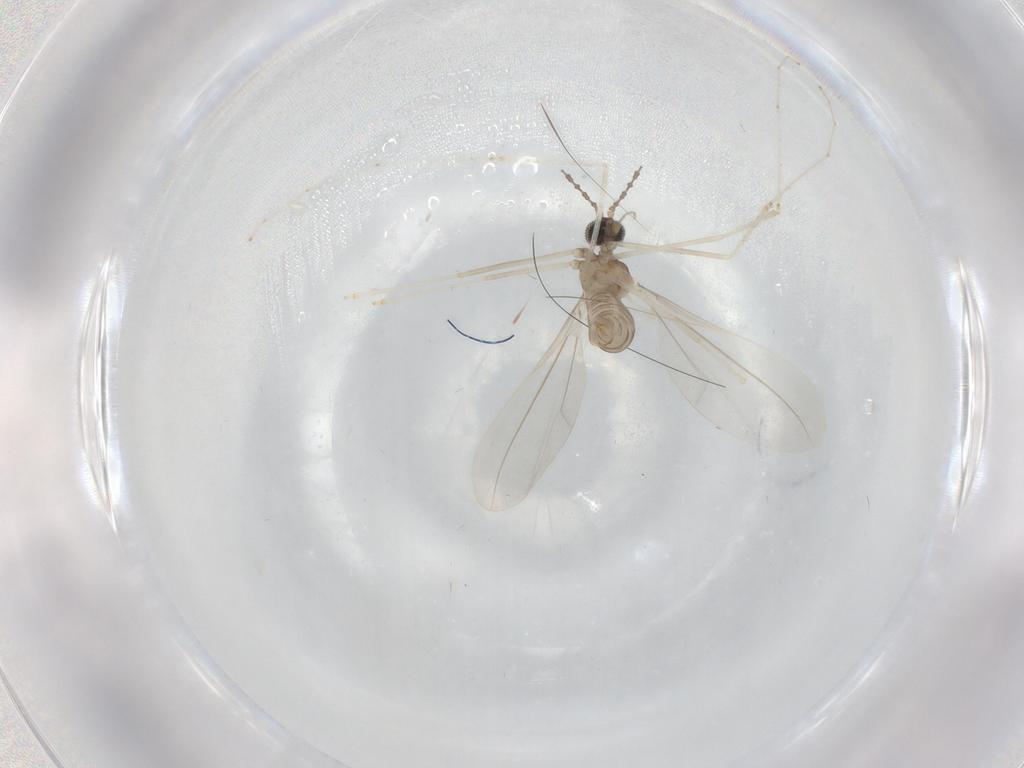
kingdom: Animalia
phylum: Arthropoda
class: Insecta
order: Diptera
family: Cecidomyiidae
